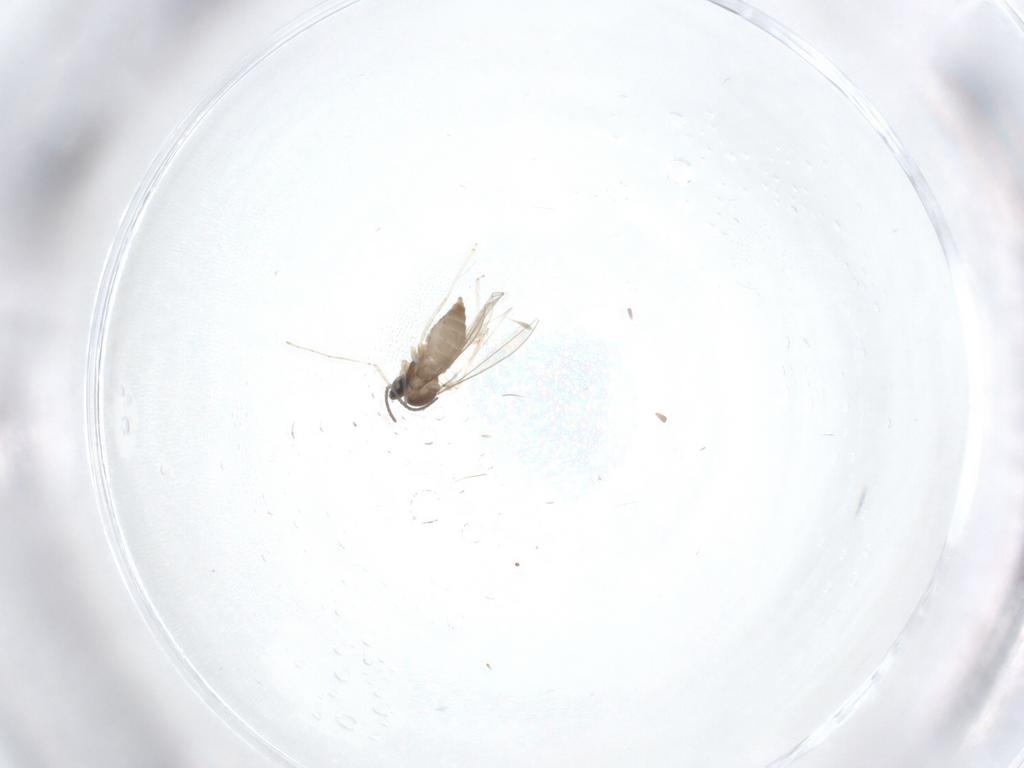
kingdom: Animalia
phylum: Arthropoda
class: Insecta
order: Diptera
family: Cecidomyiidae
